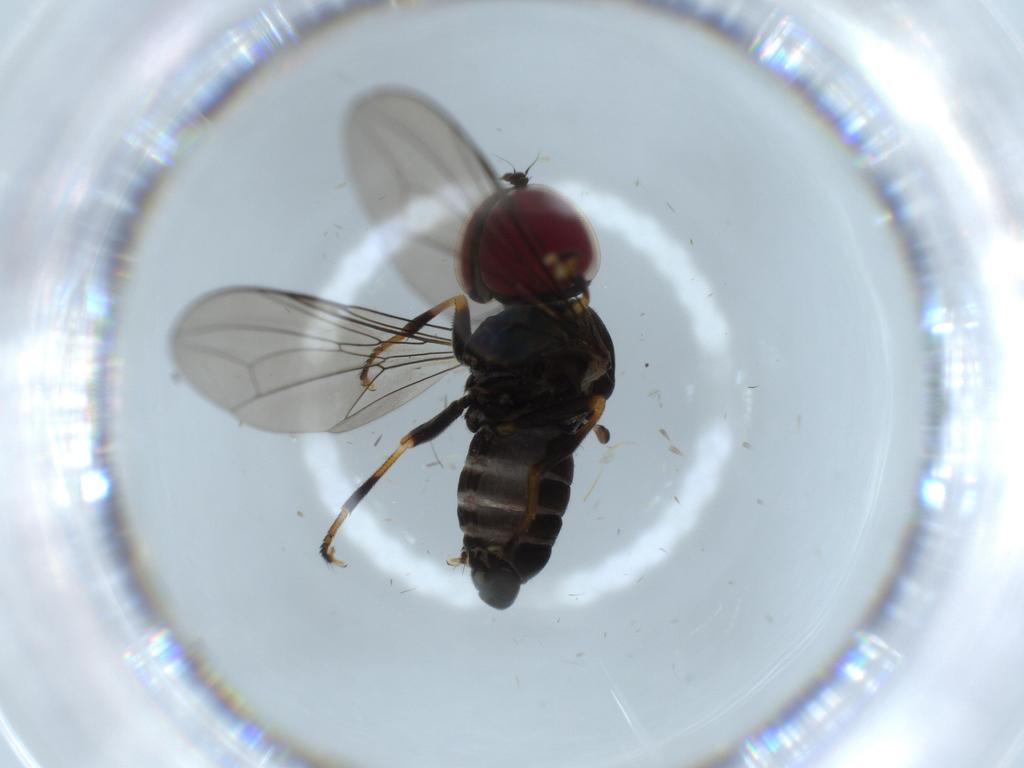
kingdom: Animalia
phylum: Arthropoda
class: Insecta
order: Diptera
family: Pipunculidae
